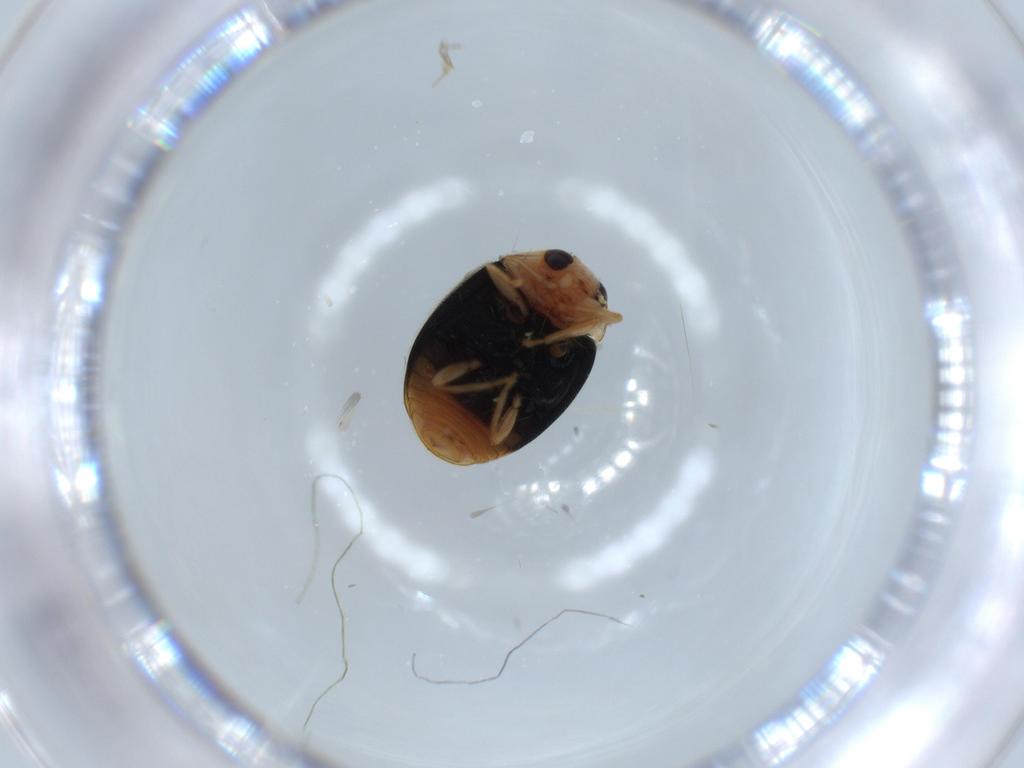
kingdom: Animalia
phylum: Arthropoda
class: Insecta
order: Coleoptera
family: Coccinellidae
